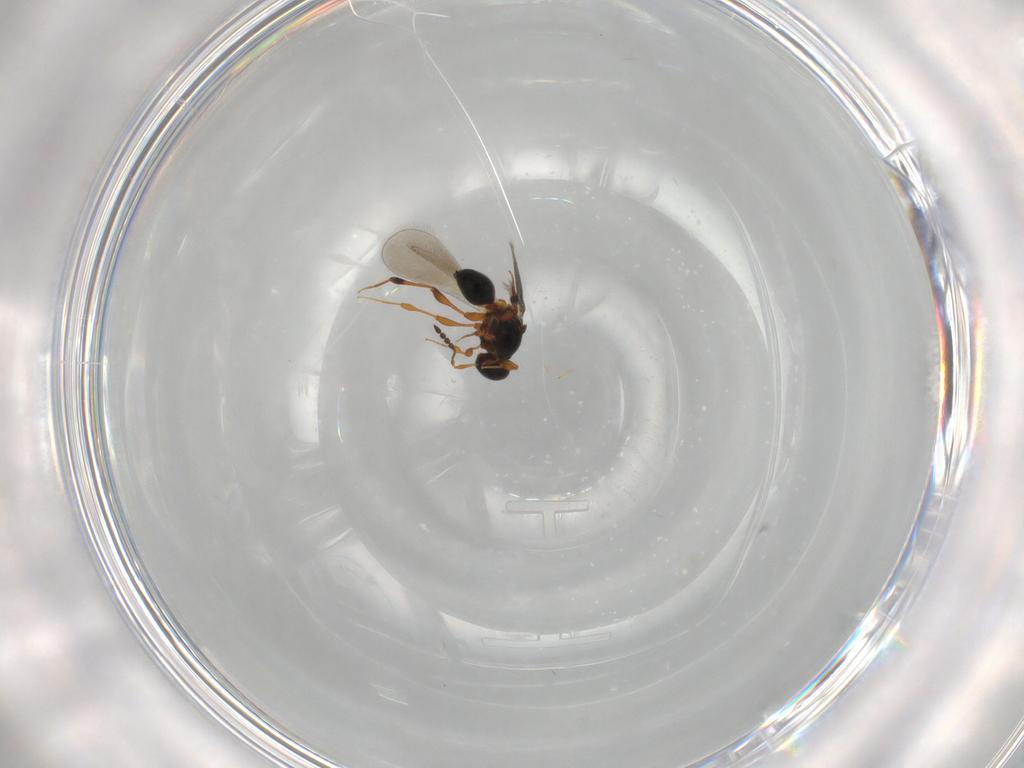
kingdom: Animalia
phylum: Arthropoda
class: Insecta
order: Hymenoptera
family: Platygastridae
